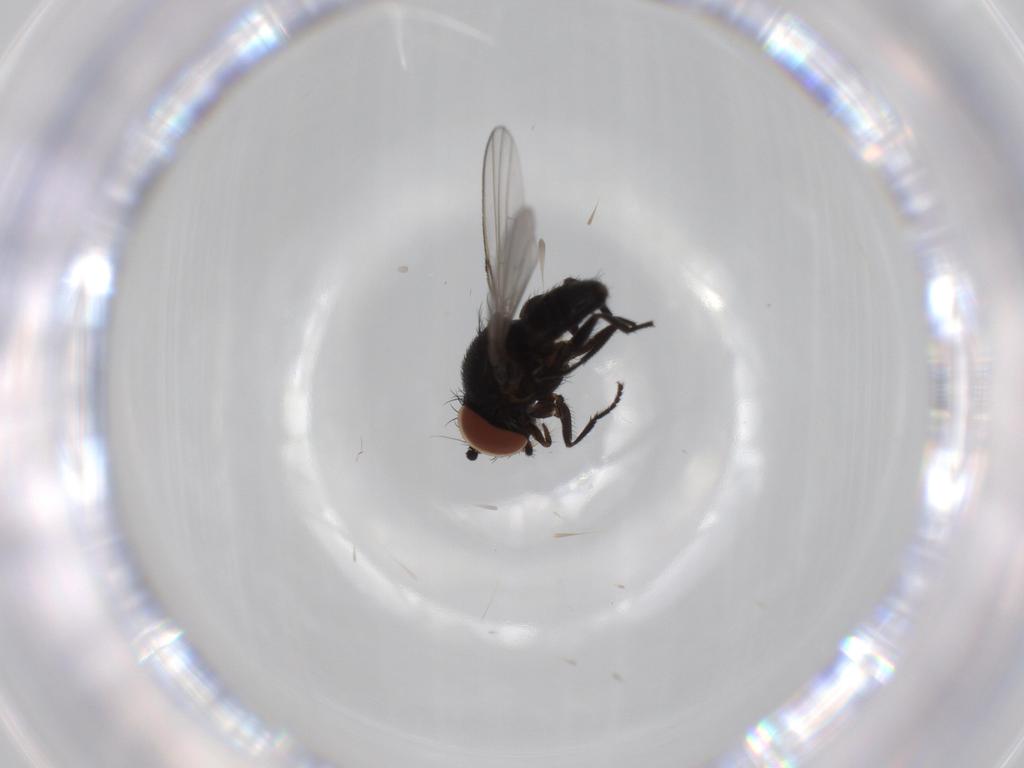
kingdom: Animalia
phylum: Arthropoda
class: Insecta
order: Diptera
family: Milichiidae
